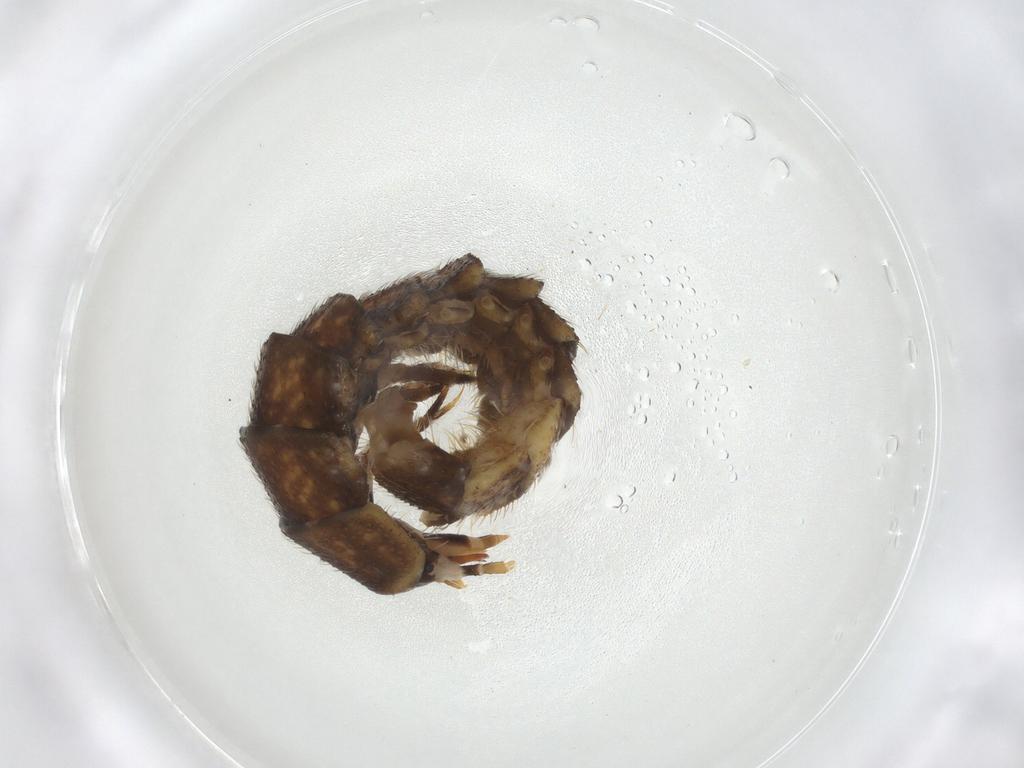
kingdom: Animalia
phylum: Arthropoda
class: Insecta
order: Coleoptera
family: Lampyridae
